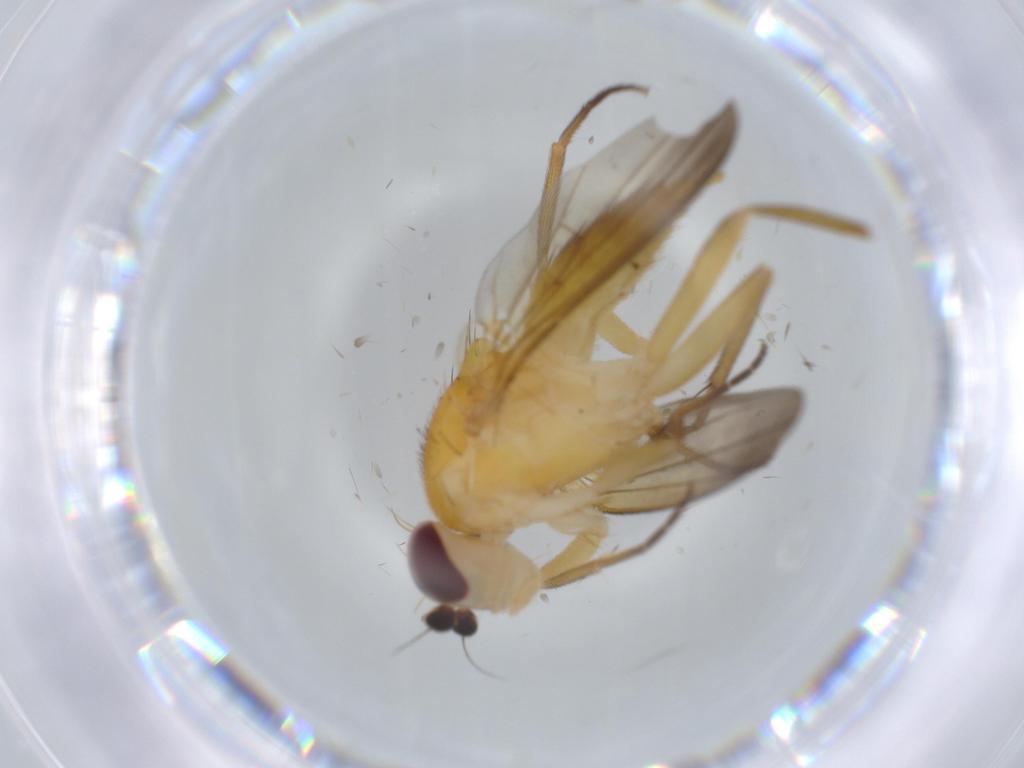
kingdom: Animalia
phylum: Arthropoda
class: Insecta
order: Diptera
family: Clusiidae
